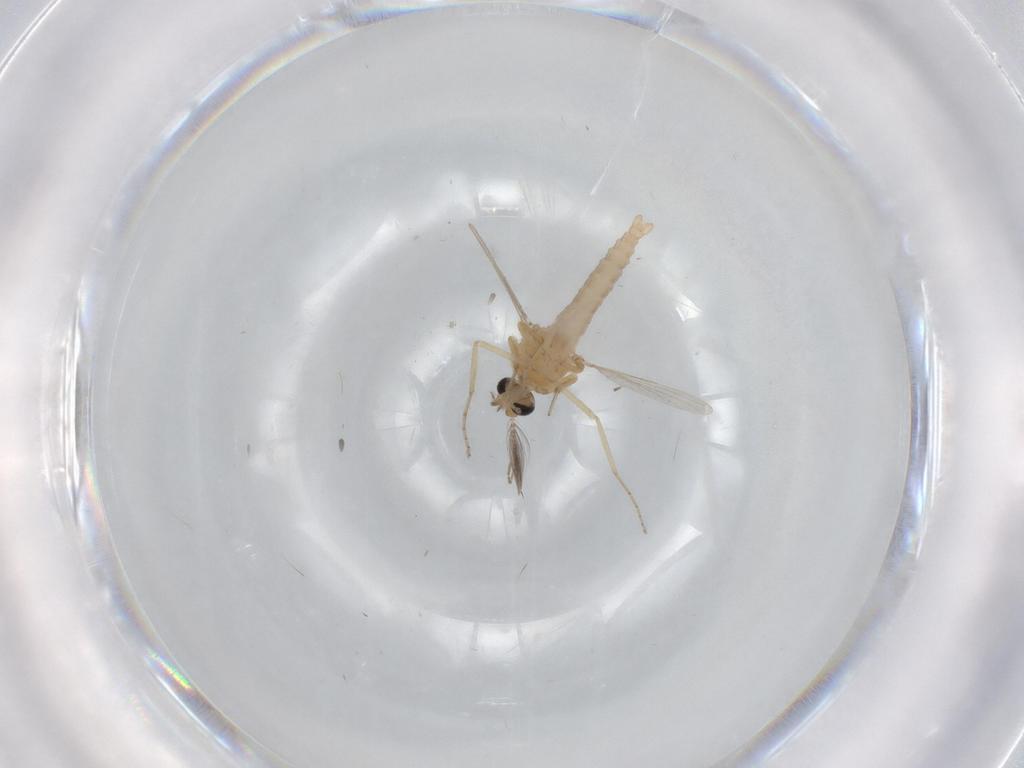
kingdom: Animalia
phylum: Arthropoda
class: Insecta
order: Diptera
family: Ceratopogonidae
